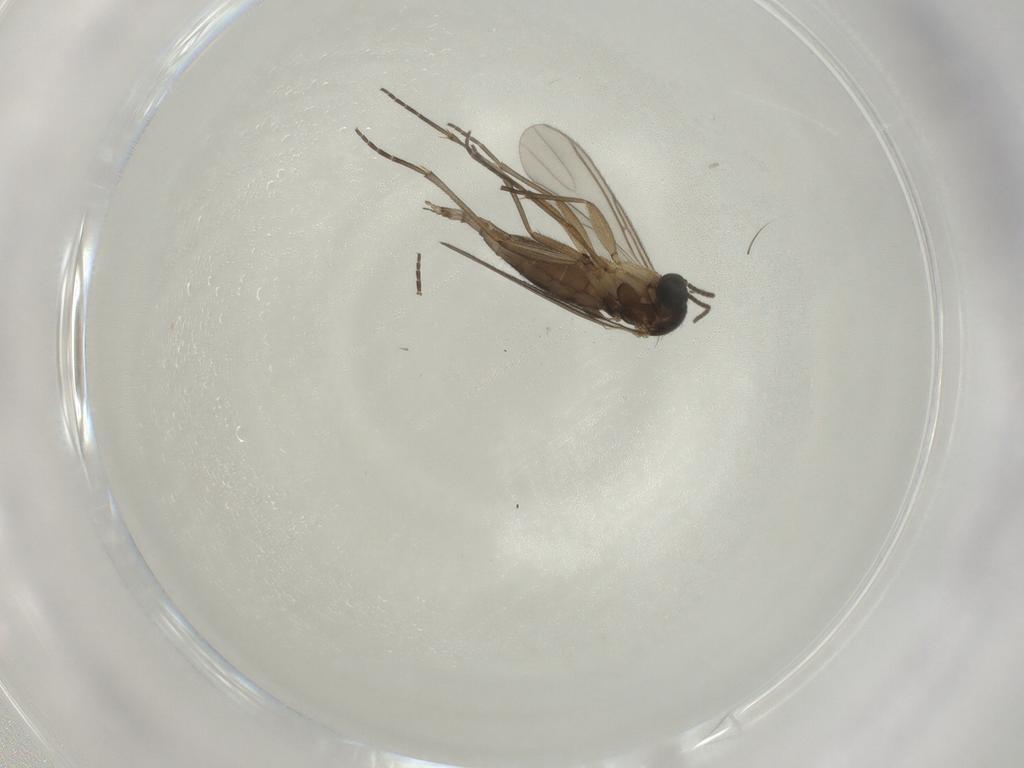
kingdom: Animalia
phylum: Arthropoda
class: Insecta
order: Diptera
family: Sciaridae
